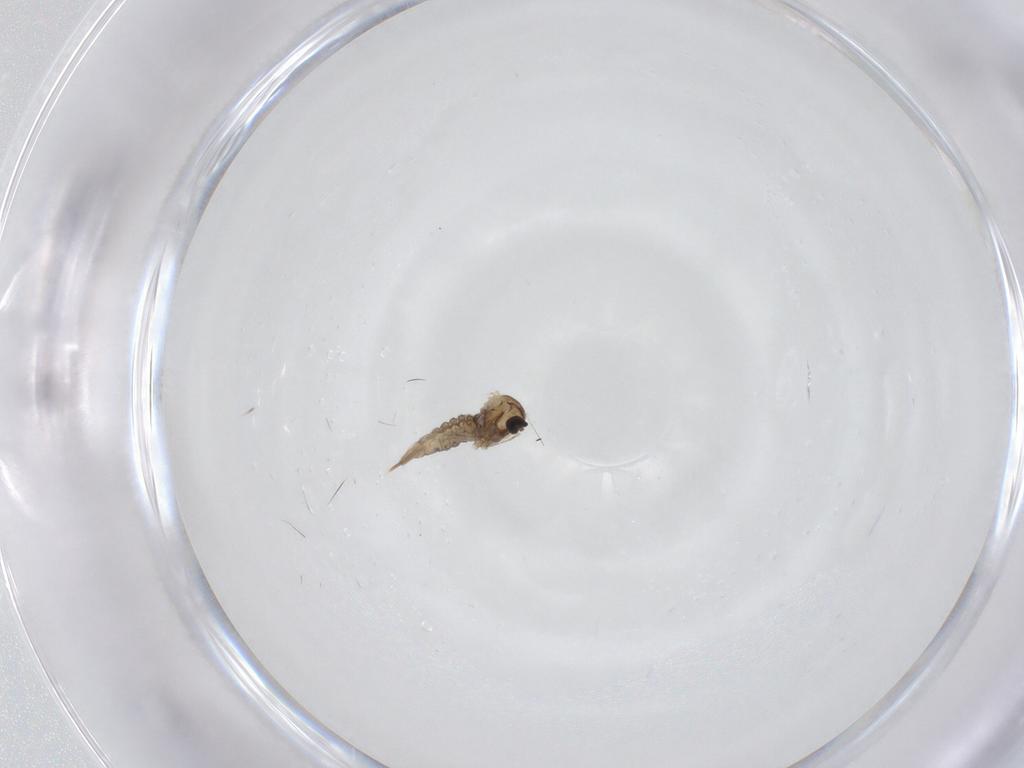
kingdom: Animalia
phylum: Arthropoda
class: Insecta
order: Diptera
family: Cecidomyiidae
